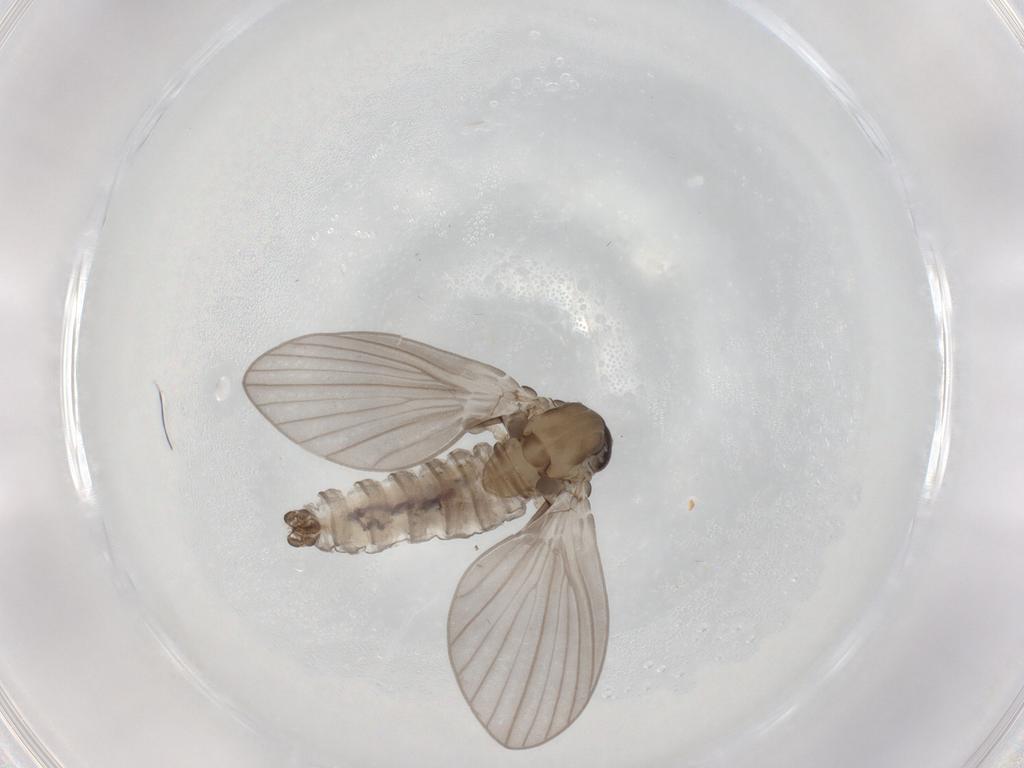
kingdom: Animalia
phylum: Arthropoda
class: Insecta
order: Diptera
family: Psychodidae
